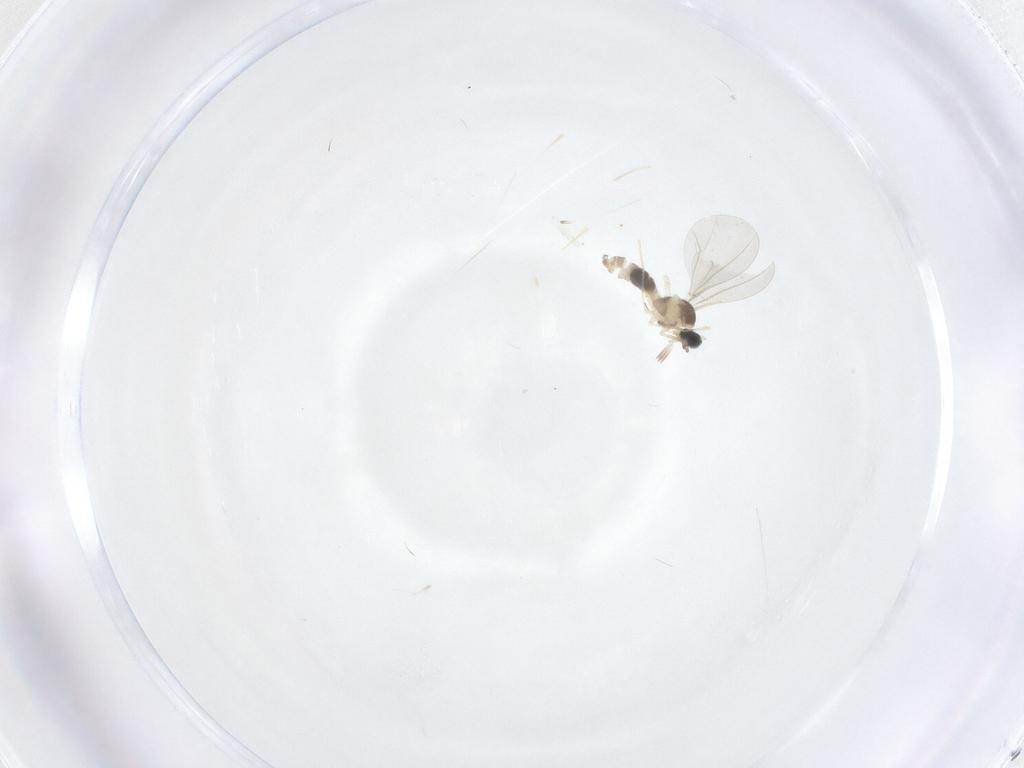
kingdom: Animalia
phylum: Arthropoda
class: Insecta
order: Diptera
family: Cecidomyiidae
